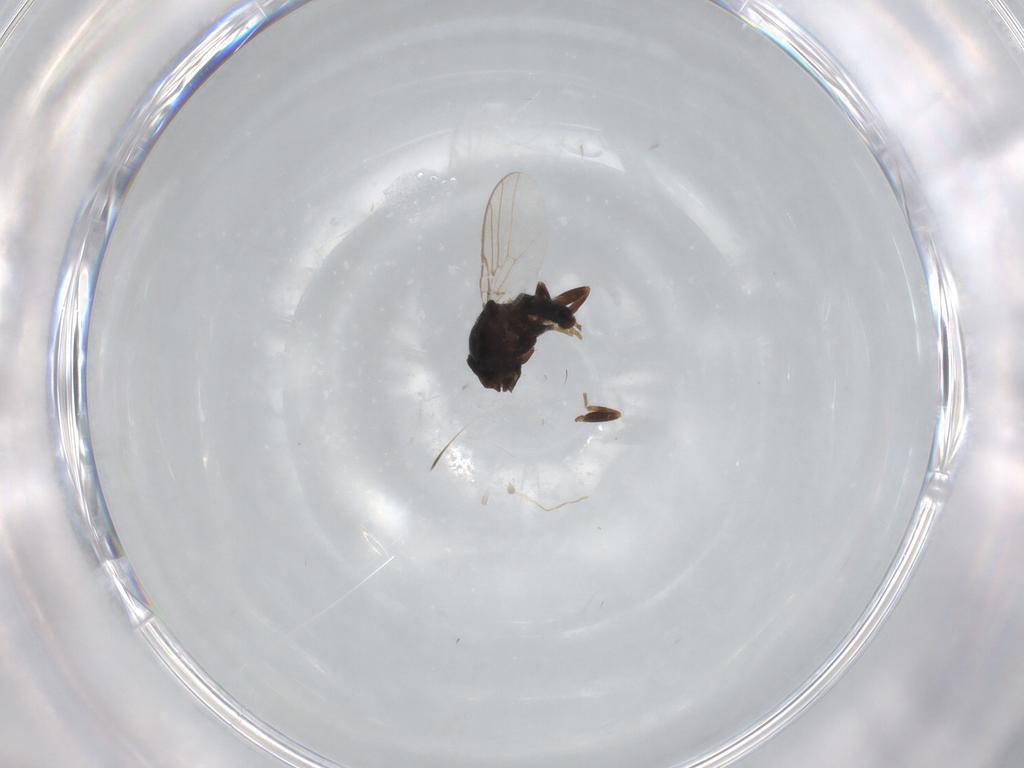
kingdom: Animalia
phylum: Arthropoda
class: Insecta
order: Diptera
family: Chloropidae
